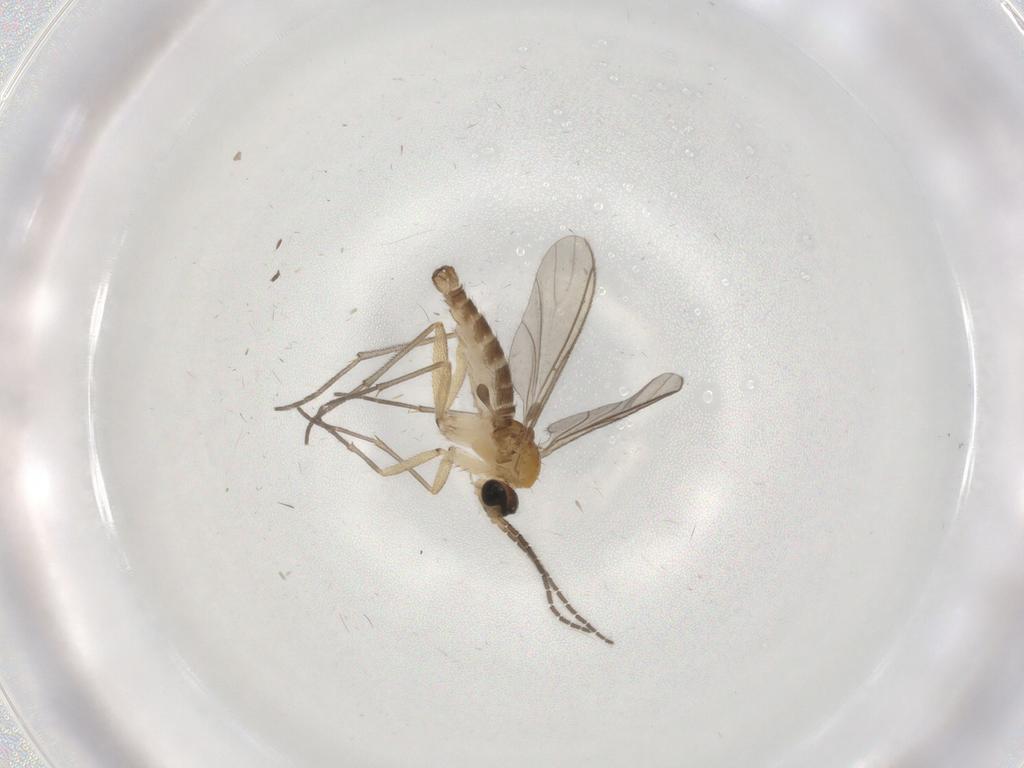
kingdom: Animalia
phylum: Arthropoda
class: Insecta
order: Diptera
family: Sciaridae
